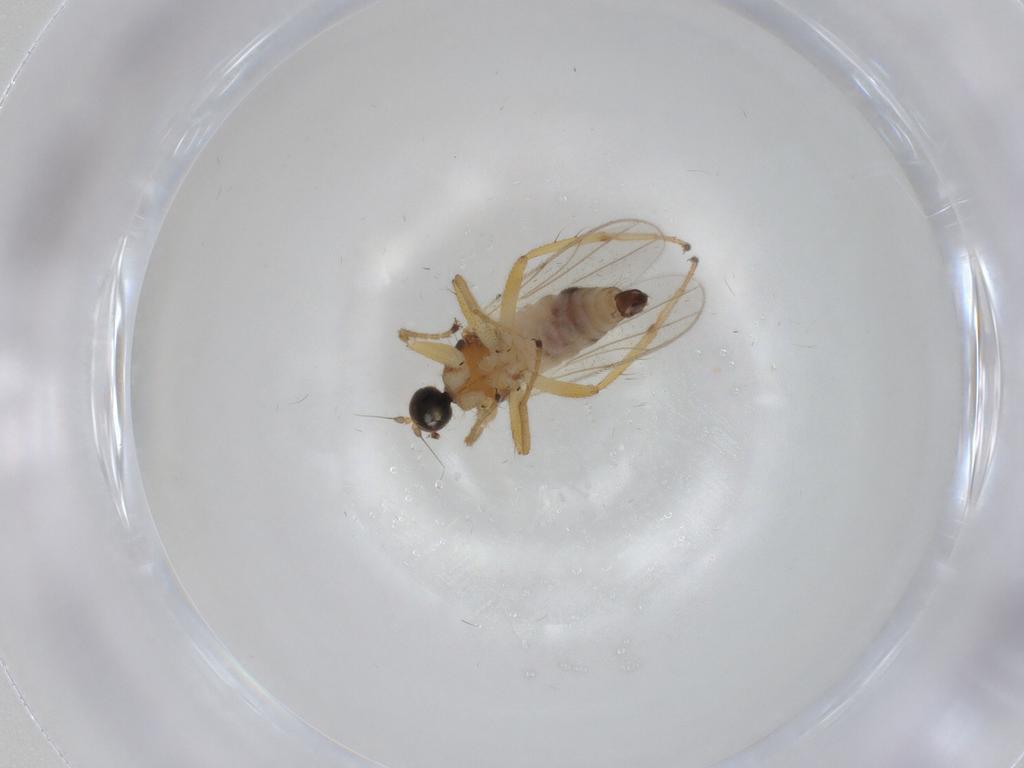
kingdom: Animalia
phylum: Arthropoda
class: Insecta
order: Diptera
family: Hybotidae
